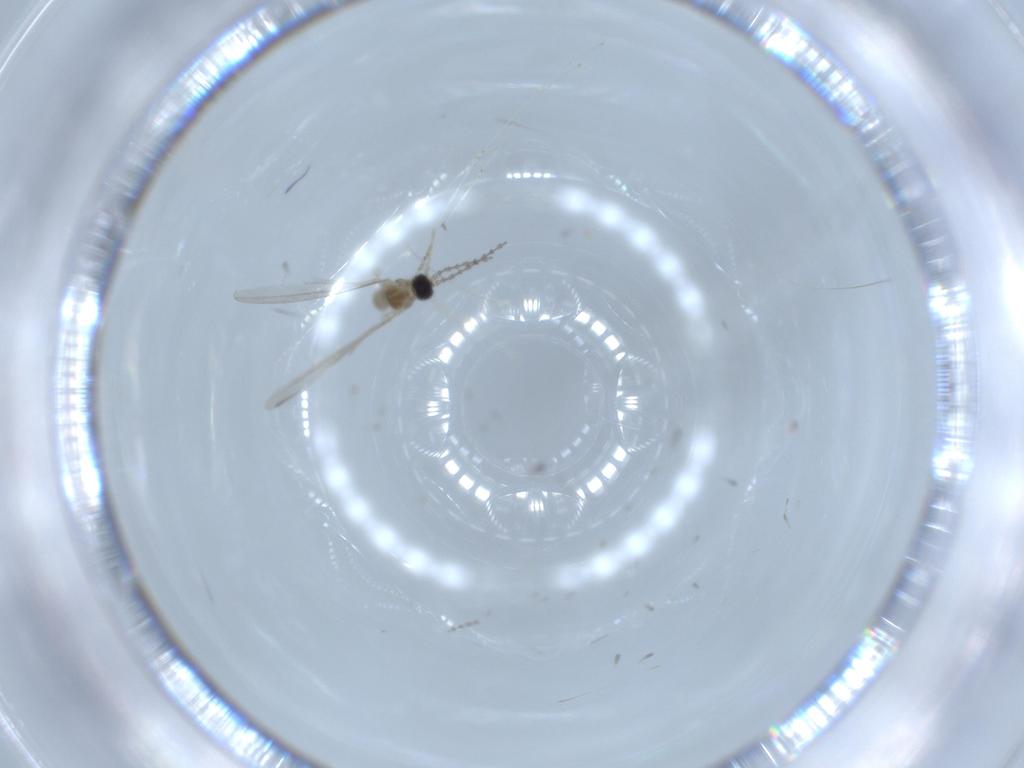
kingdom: Animalia
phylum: Arthropoda
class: Insecta
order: Diptera
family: Cecidomyiidae
